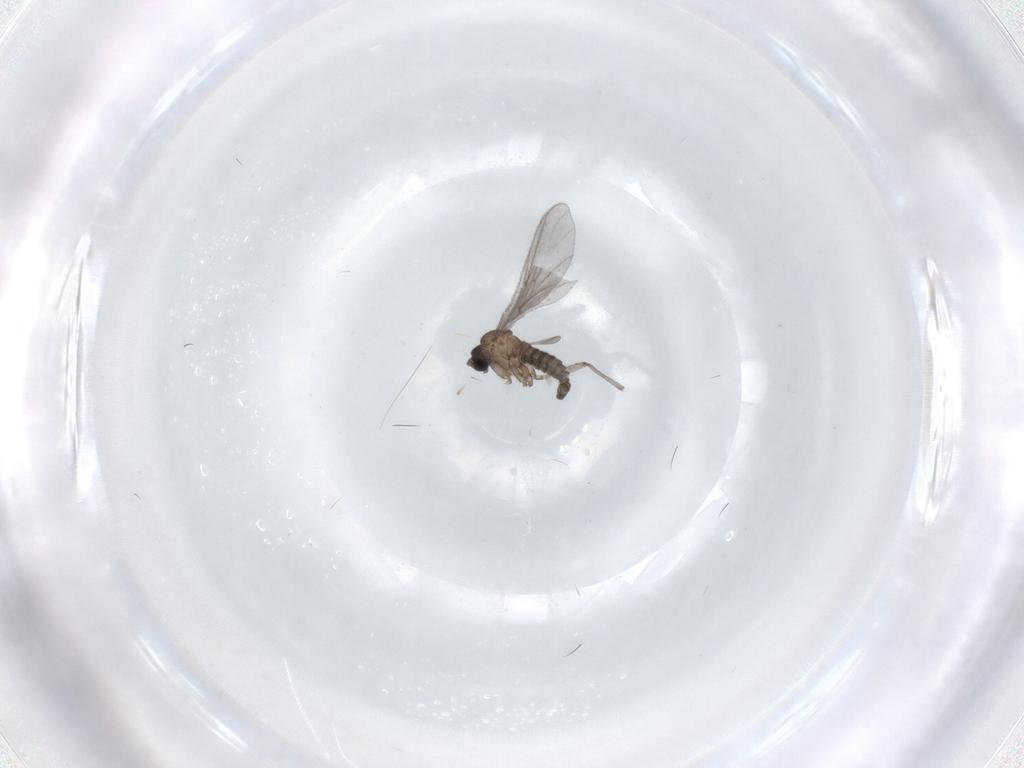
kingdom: Animalia
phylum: Arthropoda
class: Insecta
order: Diptera
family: Sciaridae
